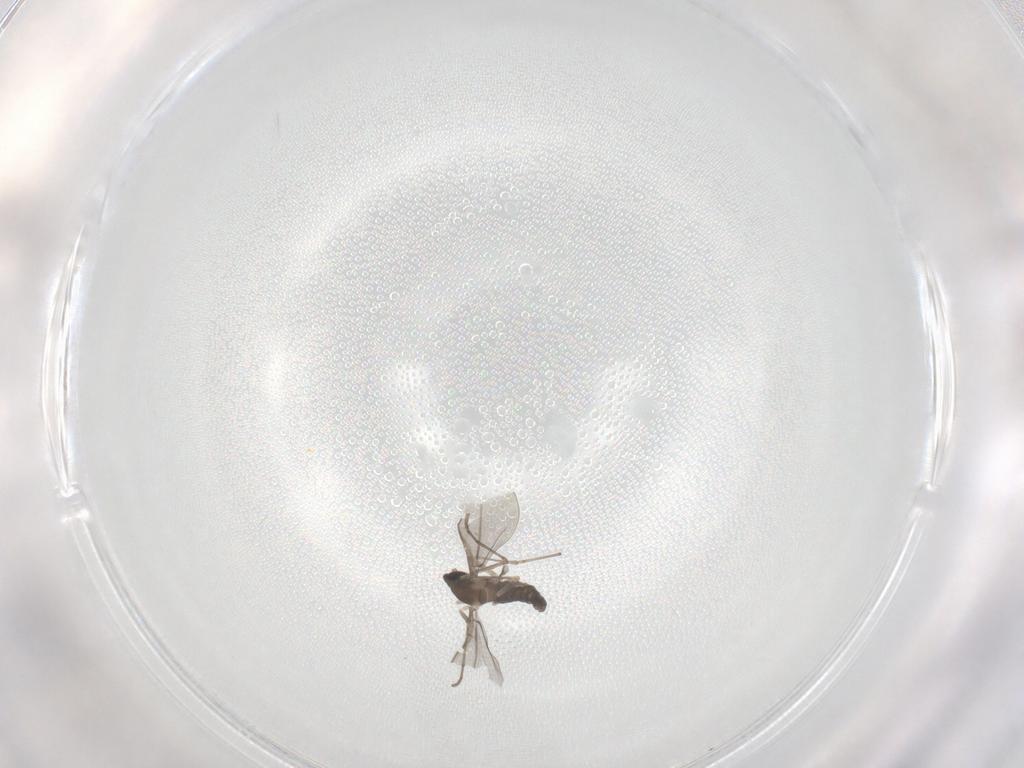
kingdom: Animalia
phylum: Arthropoda
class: Insecta
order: Diptera
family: Cecidomyiidae
